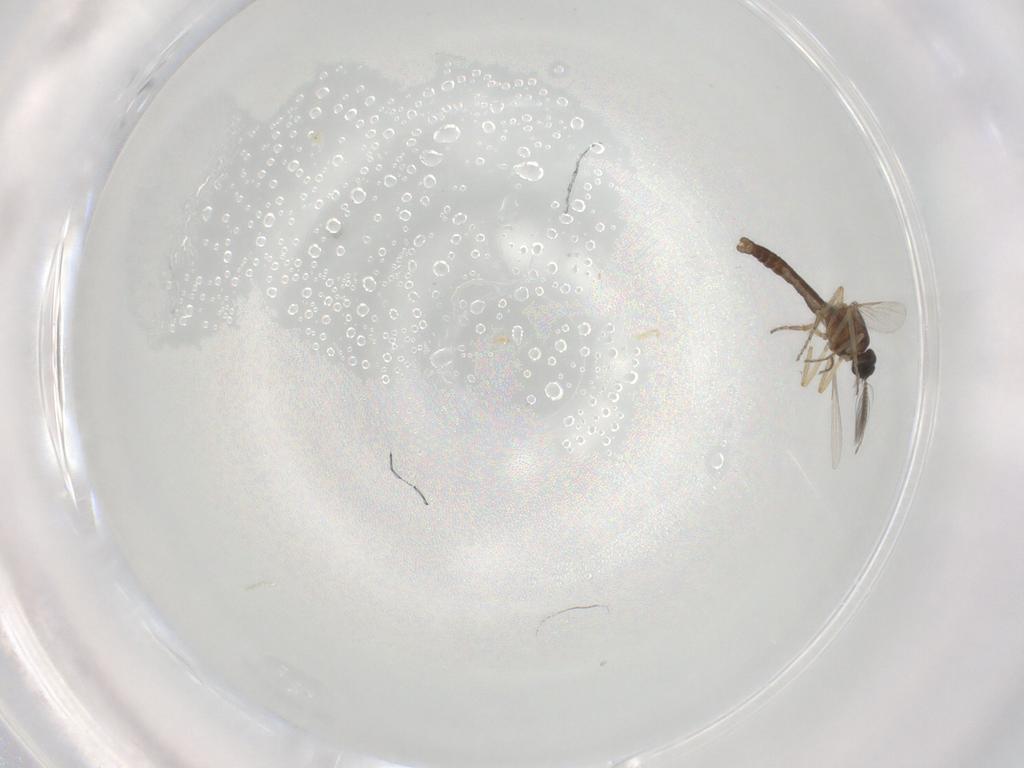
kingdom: Animalia
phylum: Arthropoda
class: Insecta
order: Diptera
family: Ceratopogonidae
